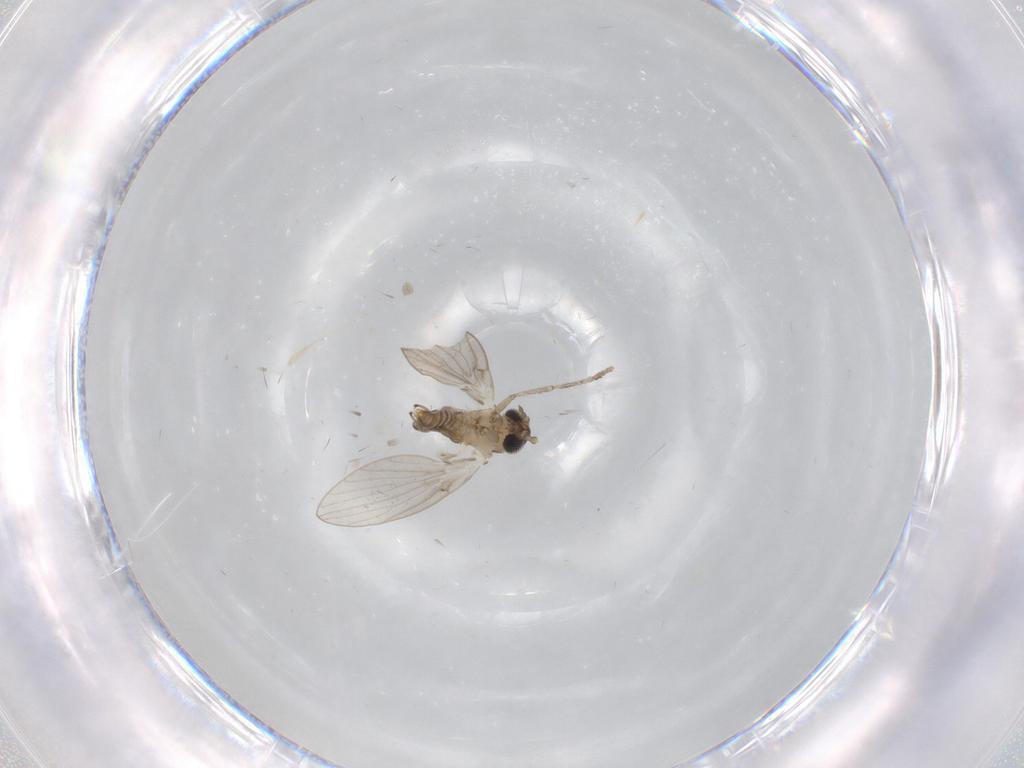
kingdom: Animalia
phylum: Arthropoda
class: Insecta
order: Diptera
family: Psychodidae
